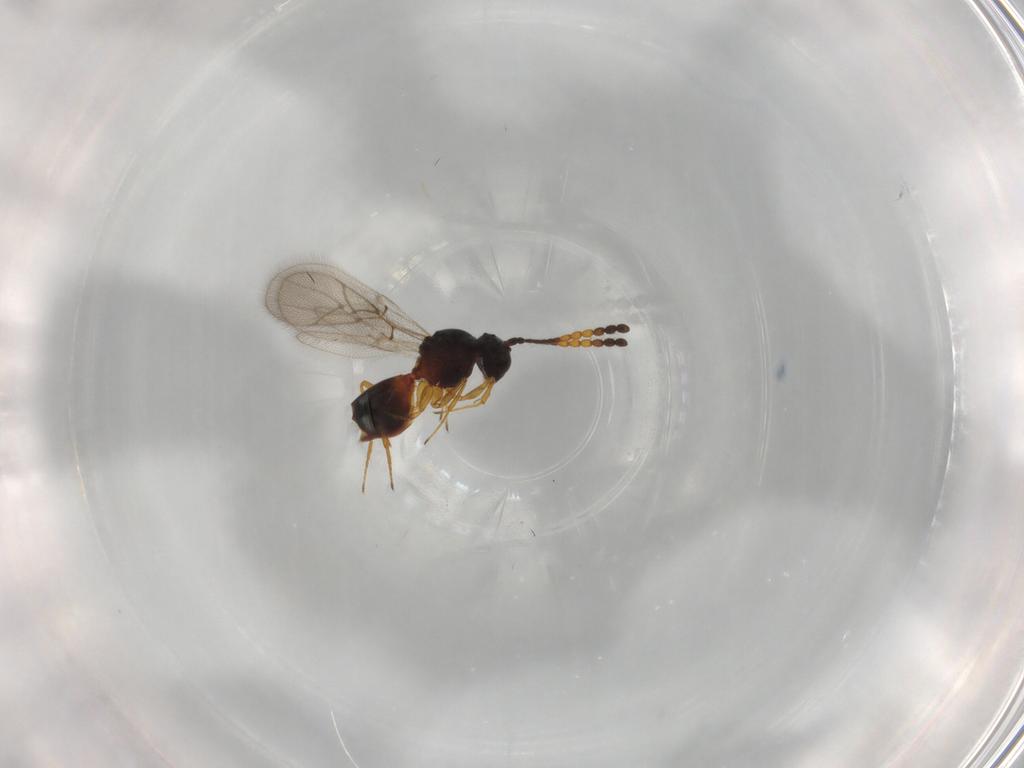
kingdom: Animalia
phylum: Arthropoda
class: Insecta
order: Hymenoptera
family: Figitidae
